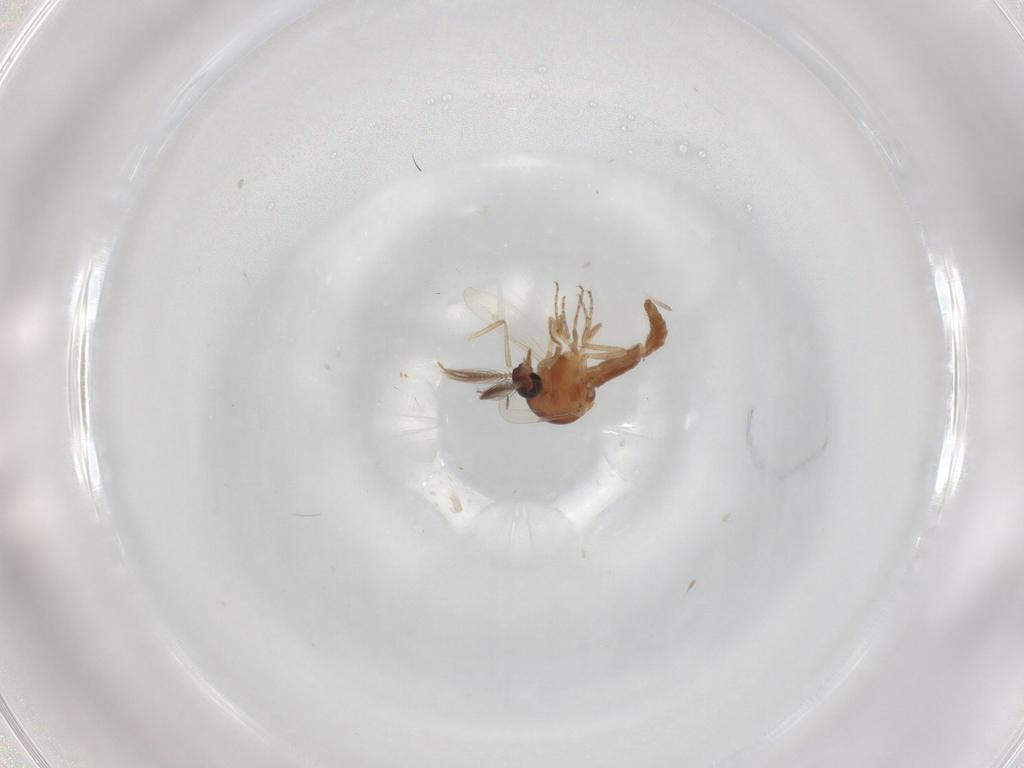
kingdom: Animalia
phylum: Arthropoda
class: Insecta
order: Diptera
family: Ceratopogonidae
